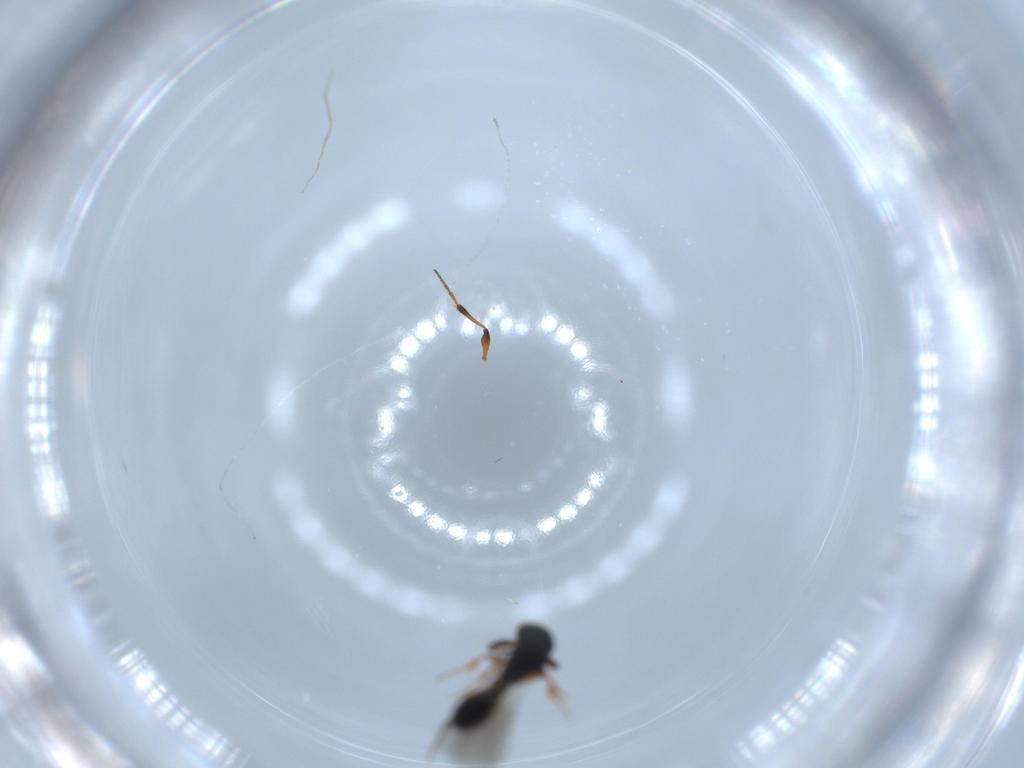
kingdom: Animalia
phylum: Arthropoda
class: Insecta
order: Hymenoptera
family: Platygastridae
